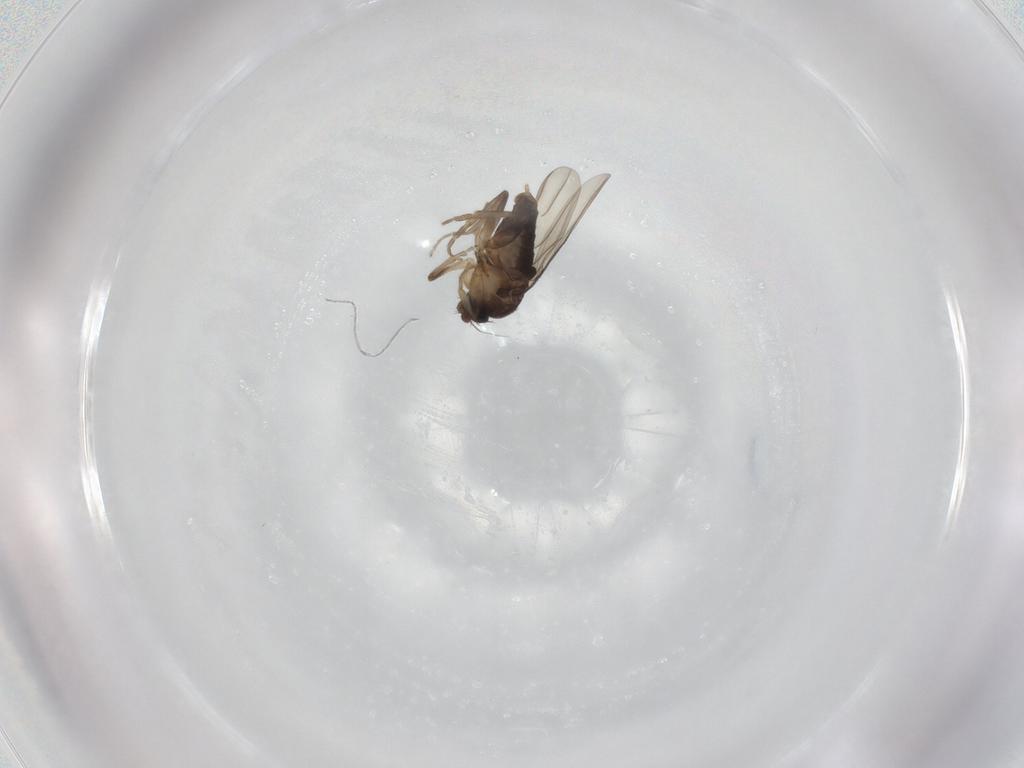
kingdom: Animalia
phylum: Arthropoda
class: Insecta
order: Diptera
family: Phoridae
